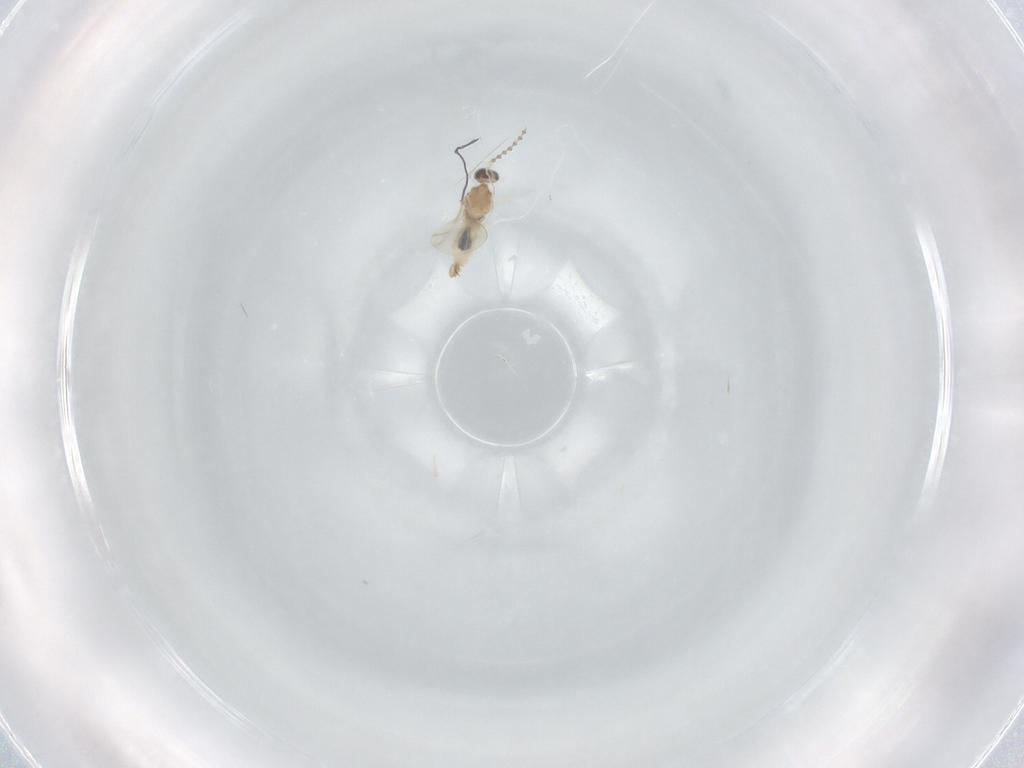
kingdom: Animalia
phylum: Arthropoda
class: Insecta
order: Diptera
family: Cecidomyiidae
